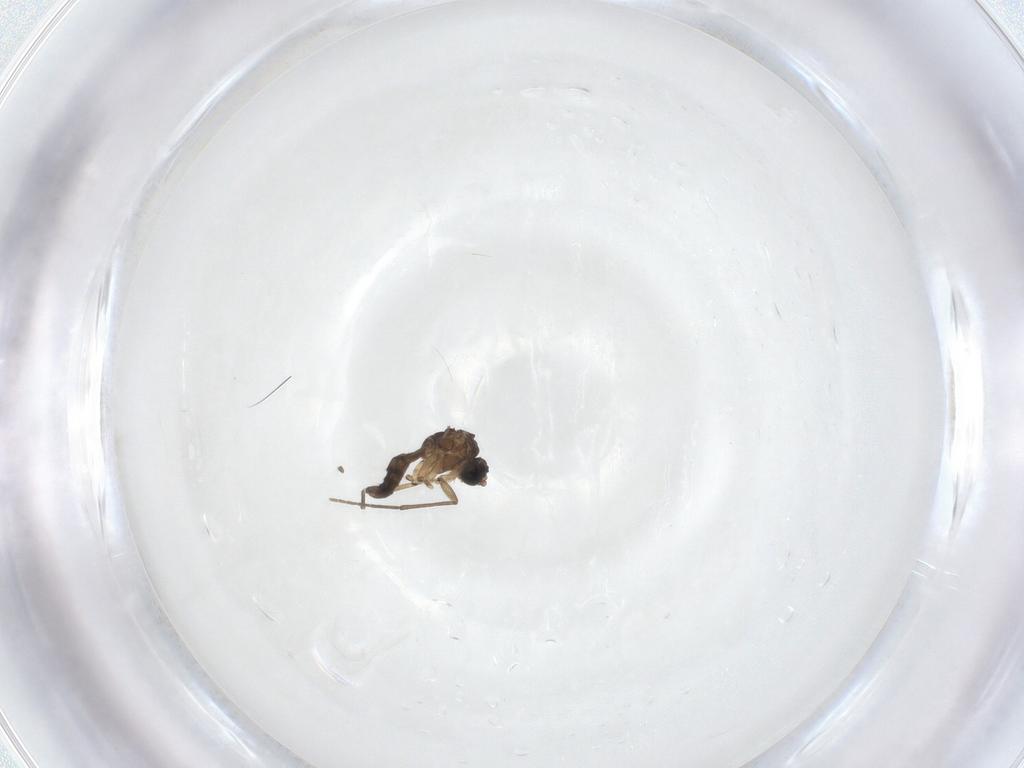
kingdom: Animalia
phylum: Arthropoda
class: Insecta
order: Diptera
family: Sciaridae
